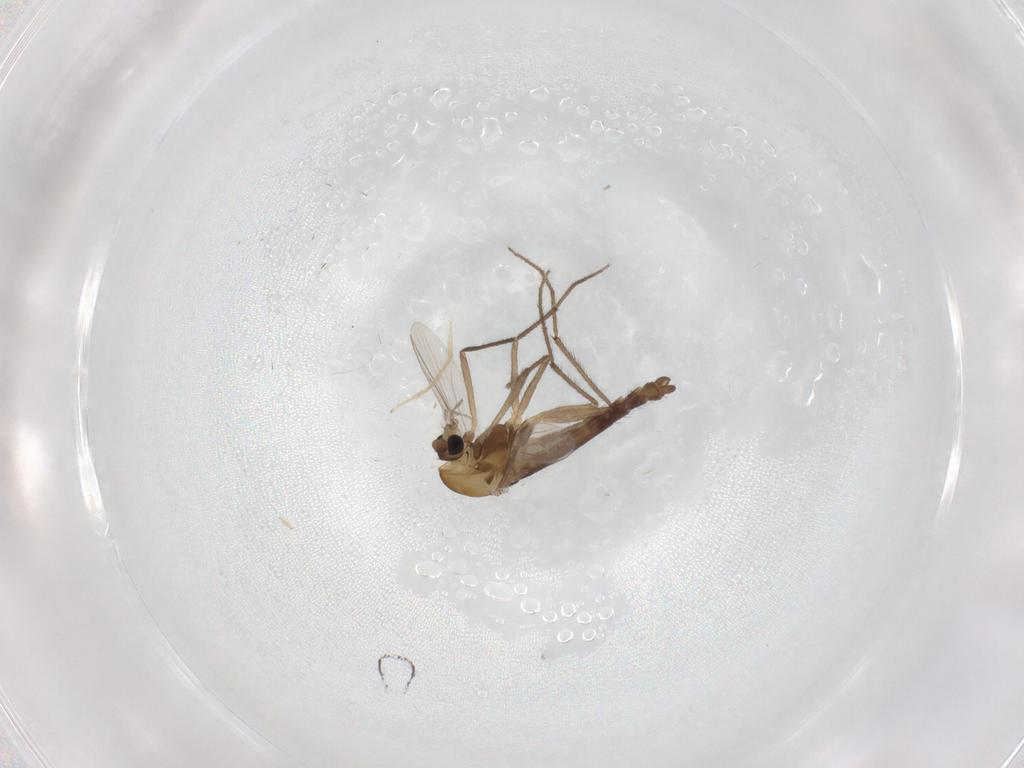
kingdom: Animalia
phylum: Arthropoda
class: Insecta
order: Diptera
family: Chironomidae
